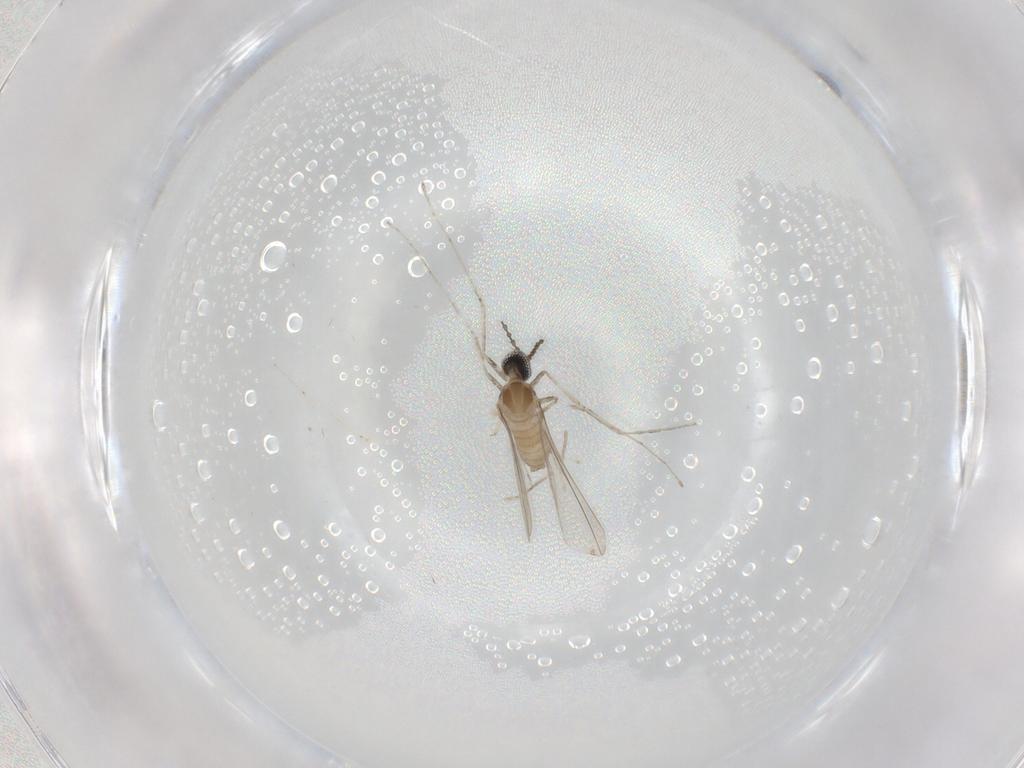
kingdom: Animalia
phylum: Arthropoda
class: Insecta
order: Diptera
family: Cecidomyiidae
